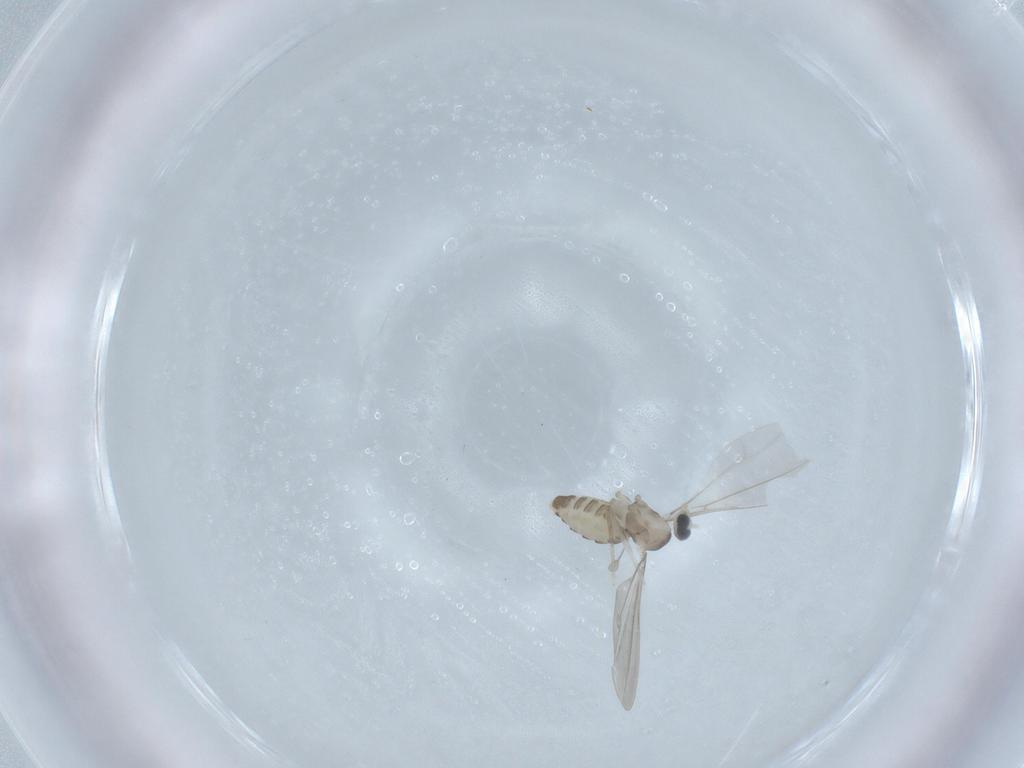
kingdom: Animalia
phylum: Arthropoda
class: Insecta
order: Diptera
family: Cecidomyiidae
